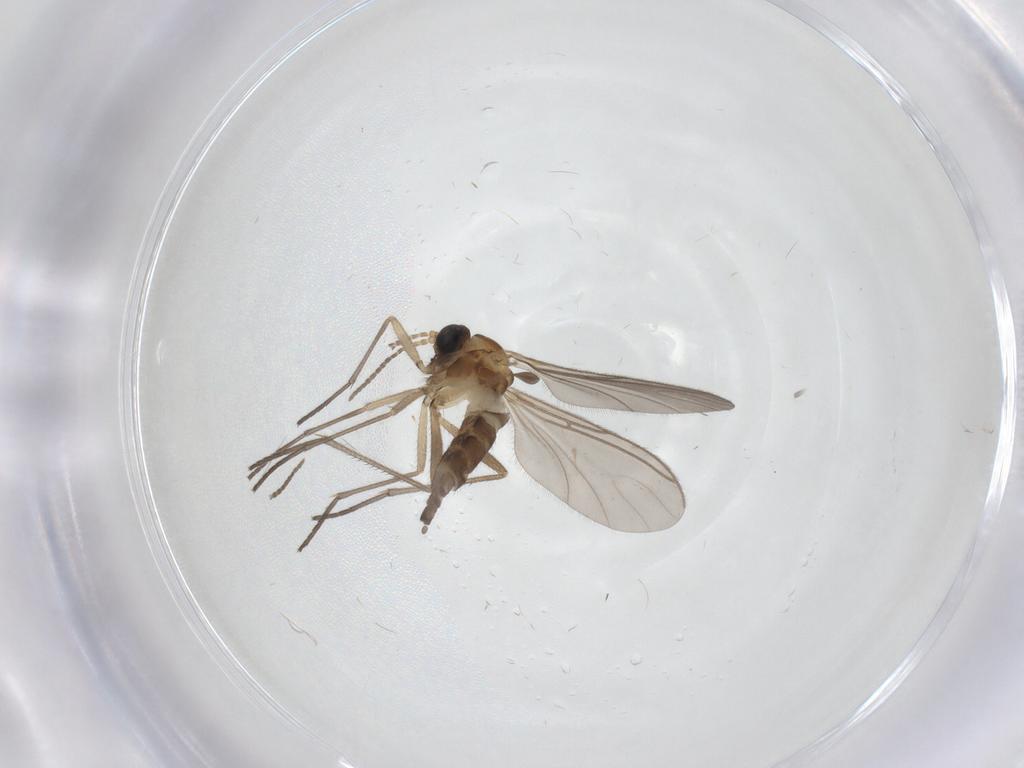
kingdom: Animalia
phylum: Arthropoda
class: Insecta
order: Diptera
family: Sciaridae
